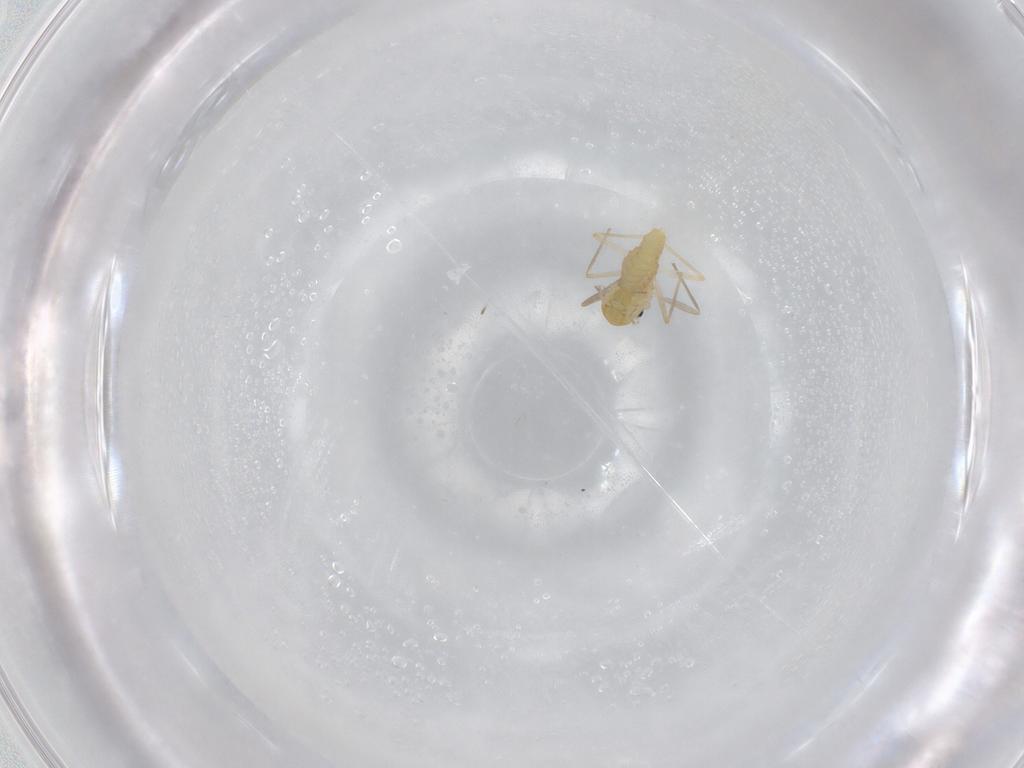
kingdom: Animalia
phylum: Arthropoda
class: Insecta
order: Diptera
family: Chironomidae
